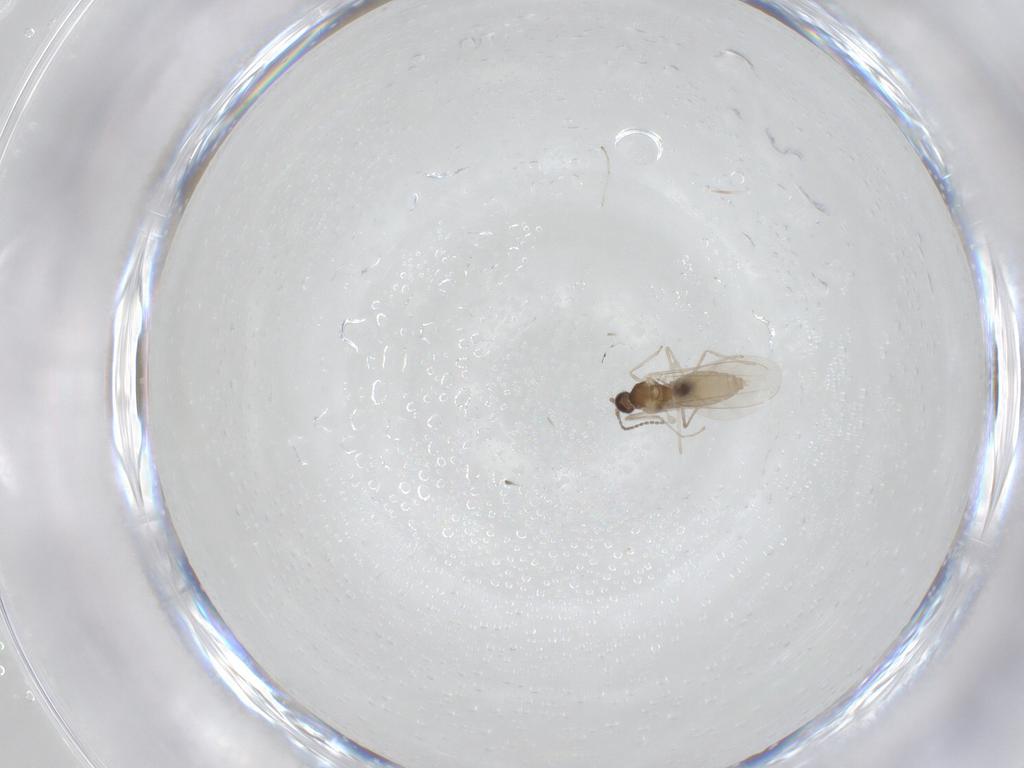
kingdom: Animalia
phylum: Arthropoda
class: Insecta
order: Diptera
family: Cecidomyiidae
